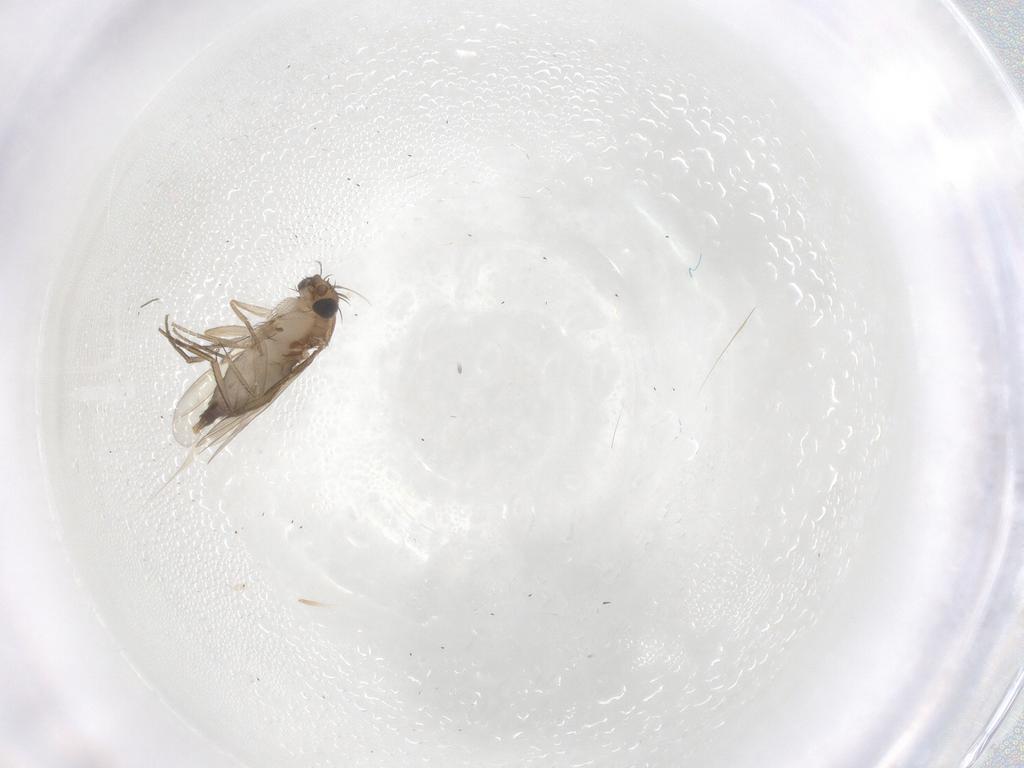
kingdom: Animalia
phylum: Arthropoda
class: Insecta
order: Diptera
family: Phoridae
